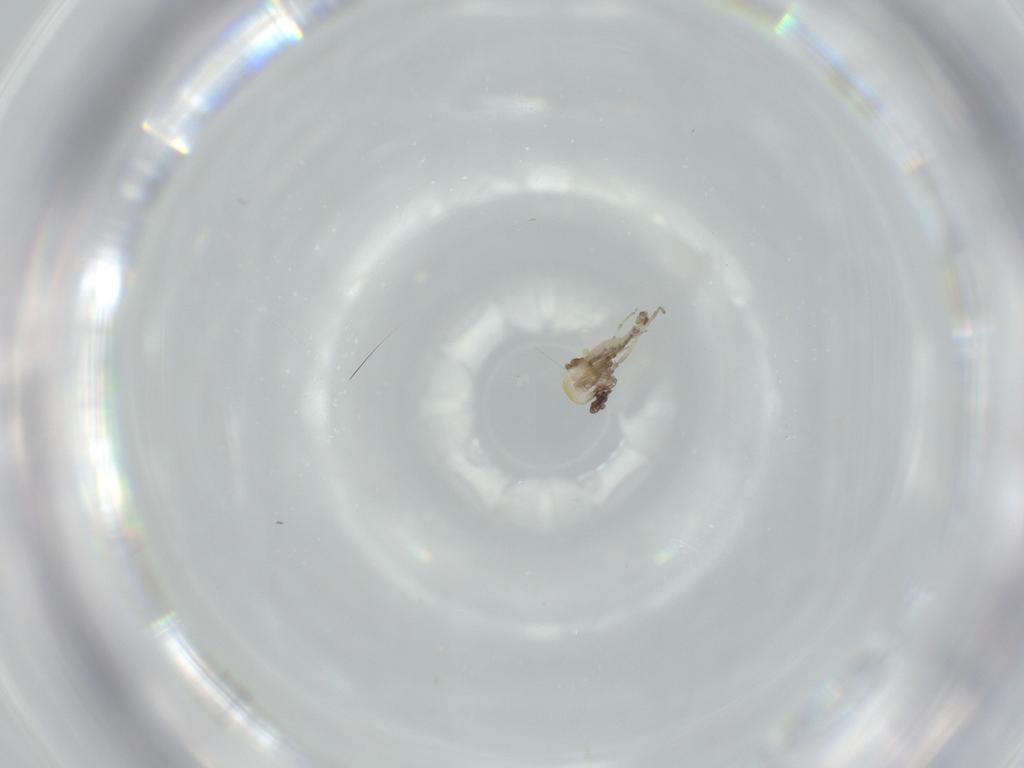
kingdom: Animalia
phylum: Arthropoda
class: Insecta
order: Diptera
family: Ceratopogonidae
